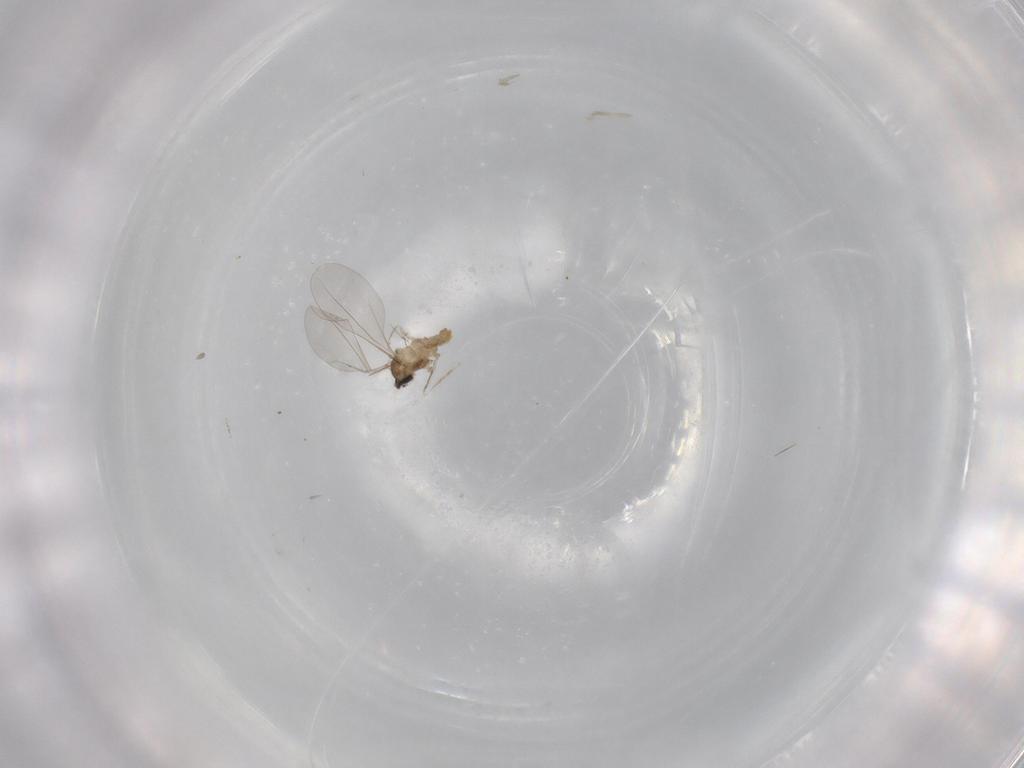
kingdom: Animalia
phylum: Arthropoda
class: Insecta
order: Diptera
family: Cecidomyiidae
